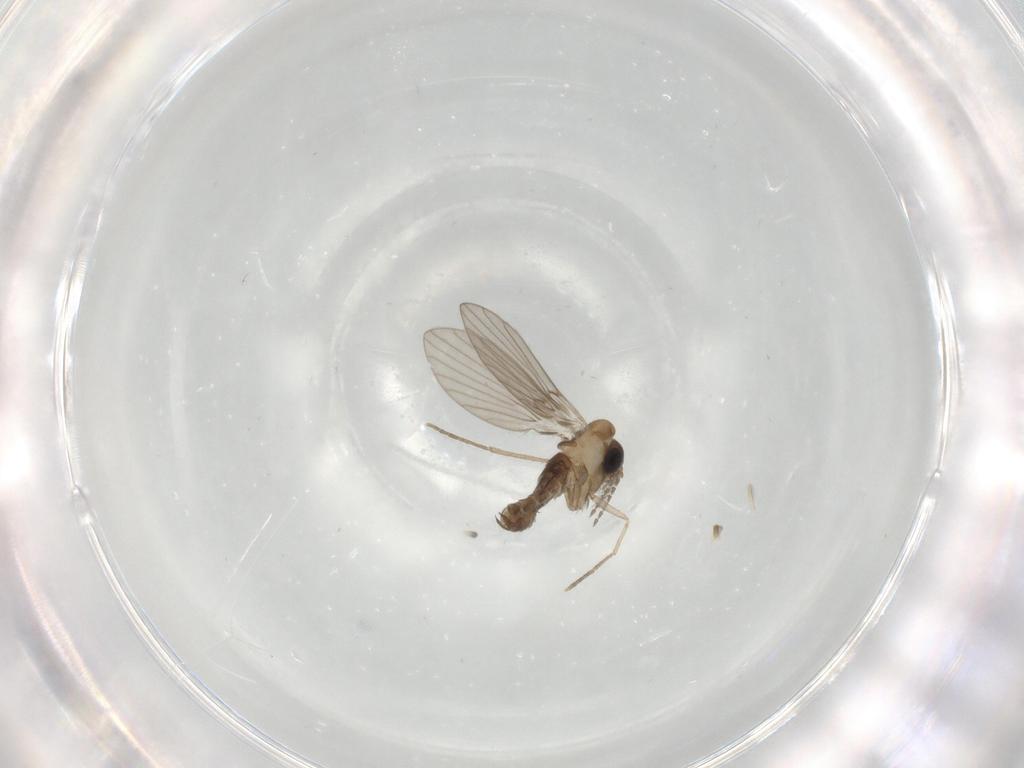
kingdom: Animalia
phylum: Arthropoda
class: Insecta
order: Diptera
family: Psychodidae
